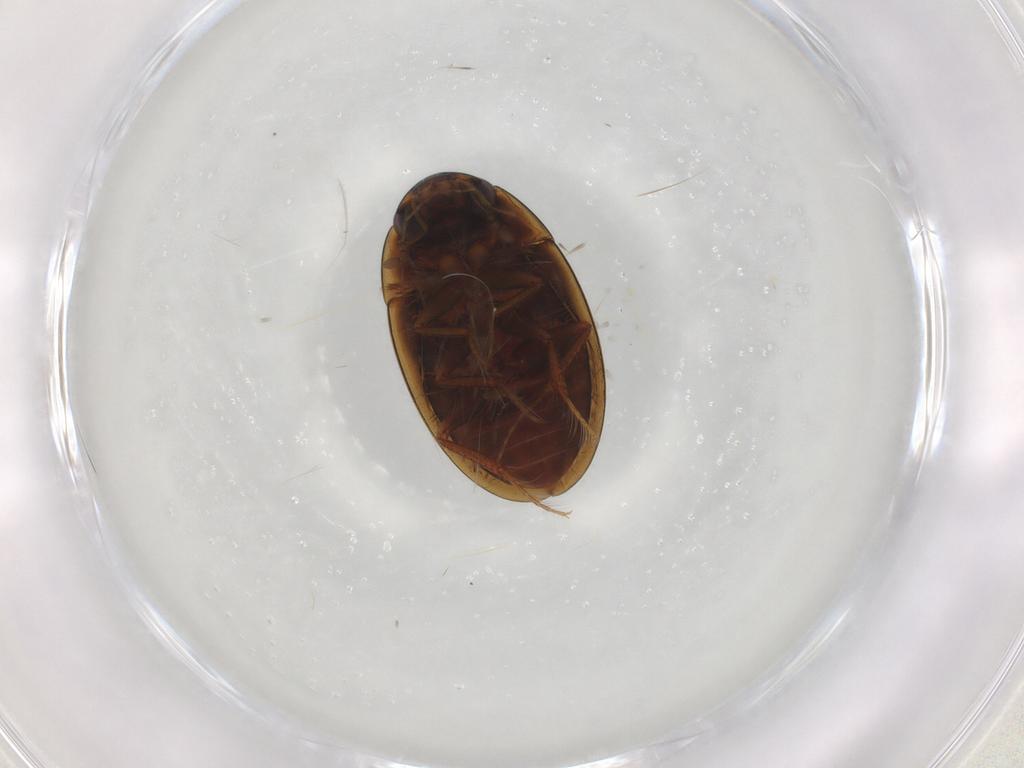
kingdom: Animalia
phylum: Arthropoda
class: Insecta
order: Coleoptera
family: Hydrophilidae
